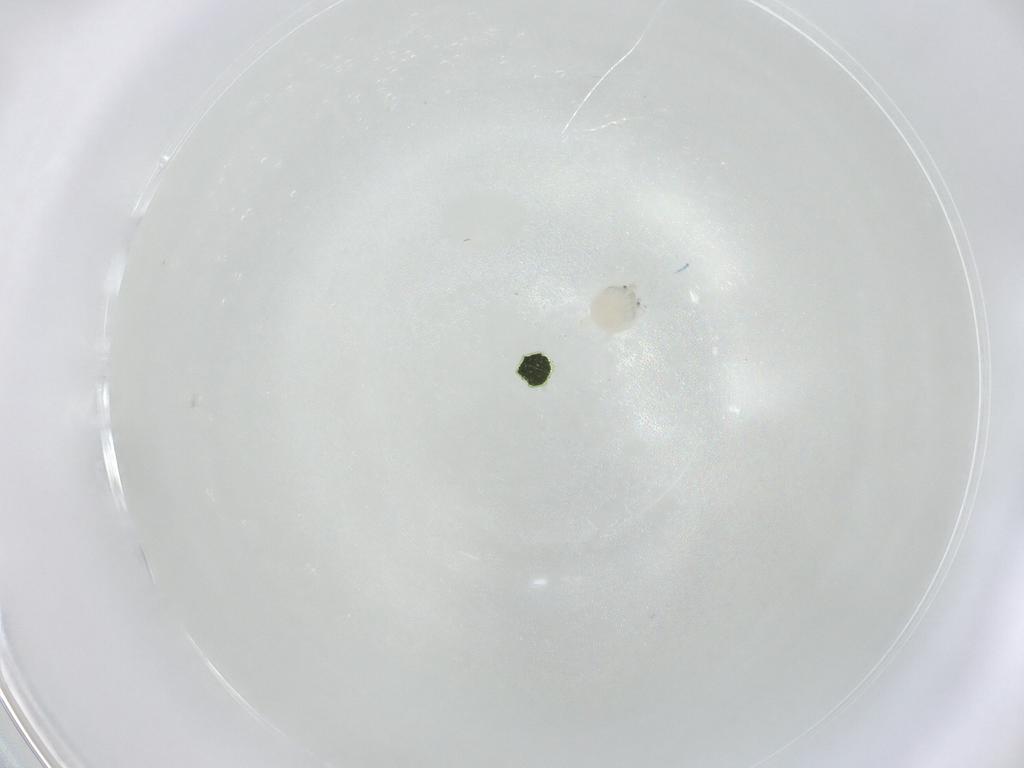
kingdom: Animalia
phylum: Arthropoda
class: Arachnida
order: Trombidiformes
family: Arrenuridae
